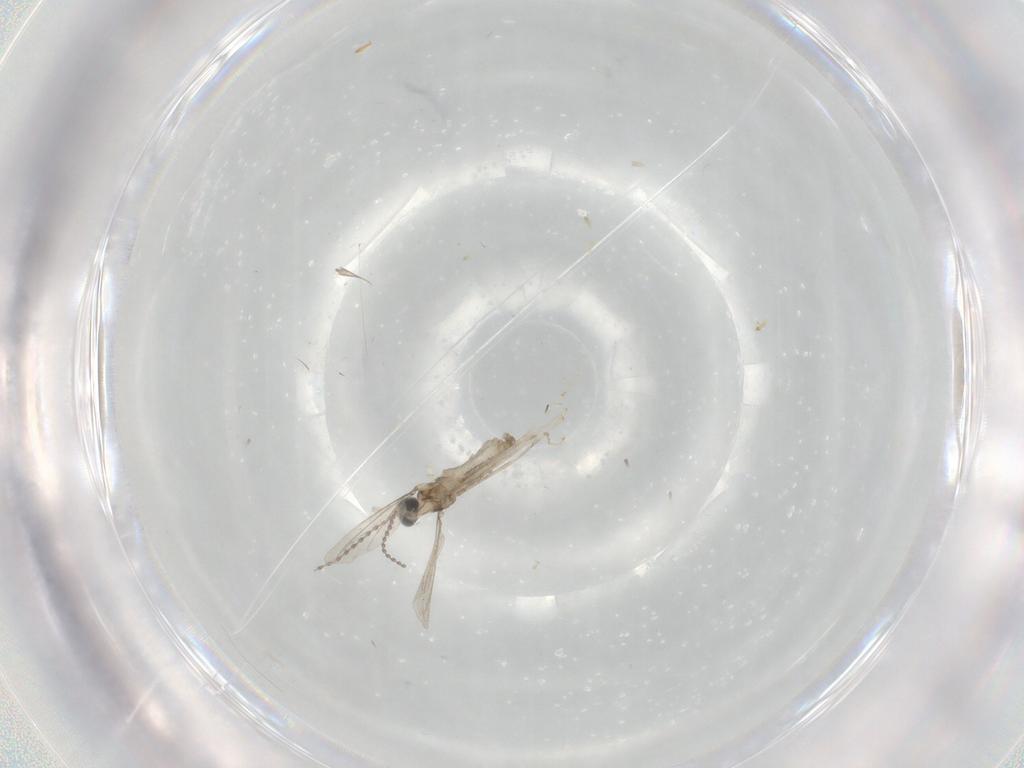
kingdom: Animalia
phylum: Arthropoda
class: Insecta
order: Diptera
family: Cecidomyiidae
